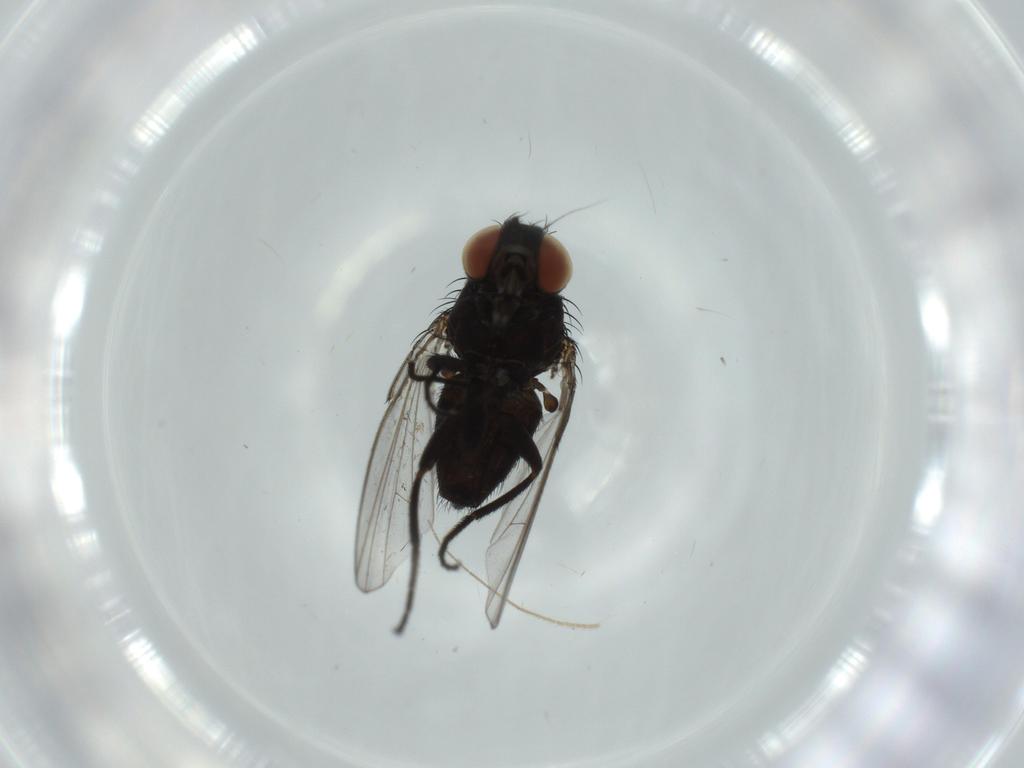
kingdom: Animalia
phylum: Arthropoda
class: Insecta
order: Diptera
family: Milichiidae
